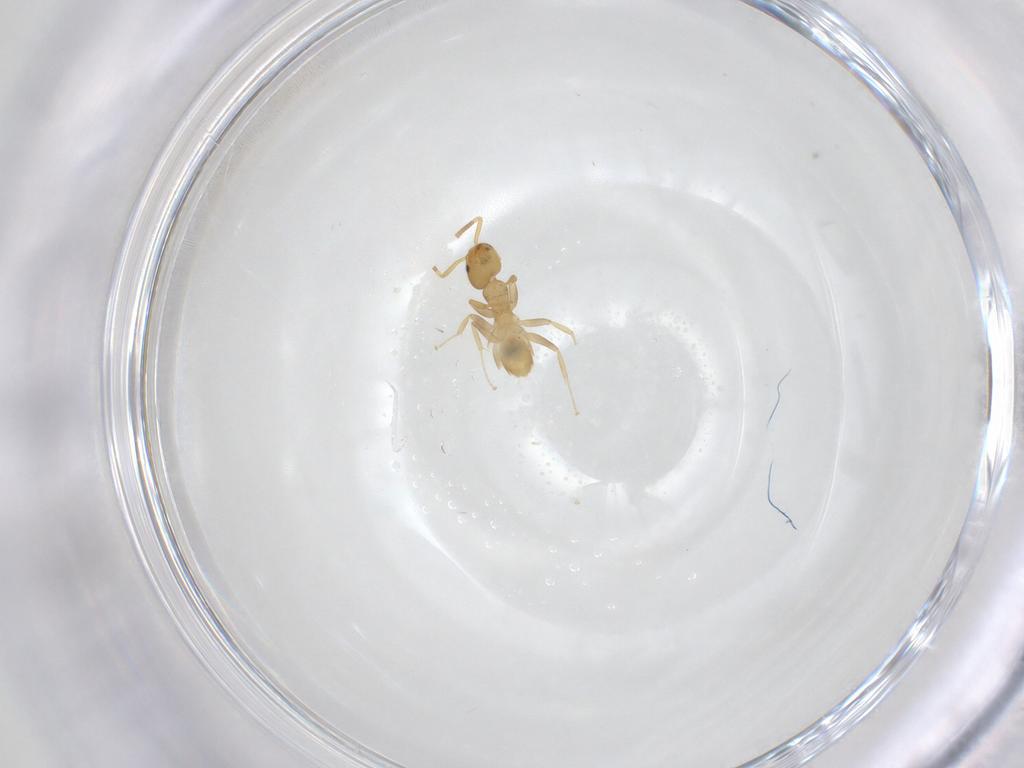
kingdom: Animalia
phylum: Arthropoda
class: Insecta
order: Hymenoptera
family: Formicidae
